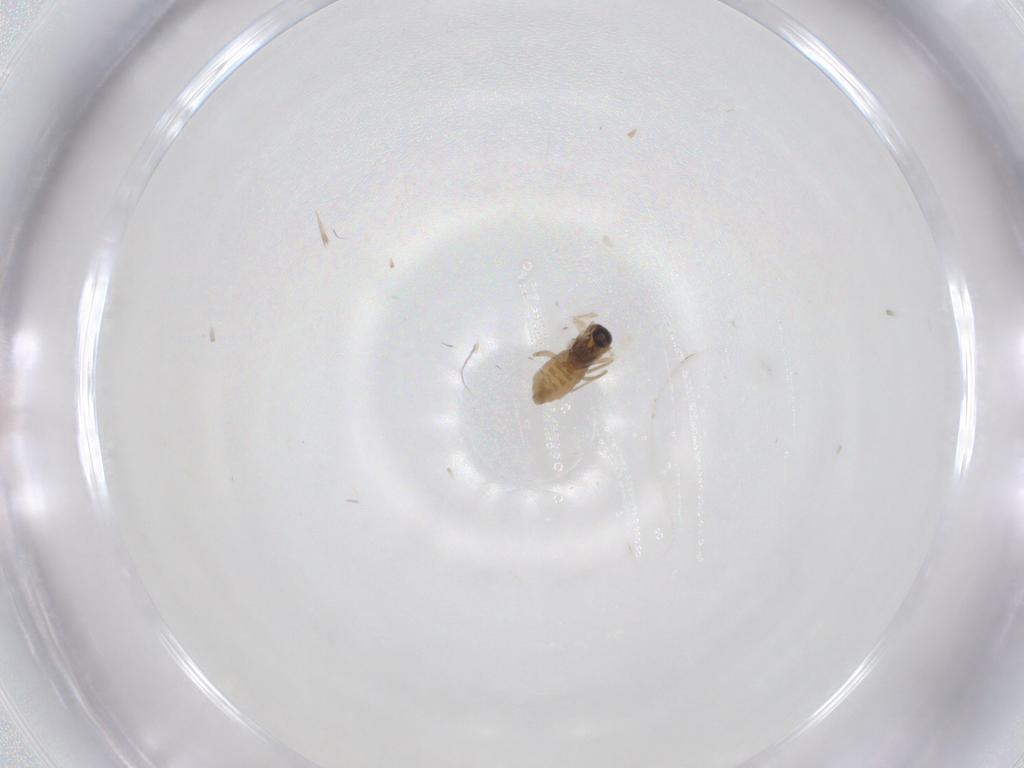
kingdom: Animalia
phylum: Arthropoda
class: Insecta
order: Diptera
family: Cecidomyiidae
